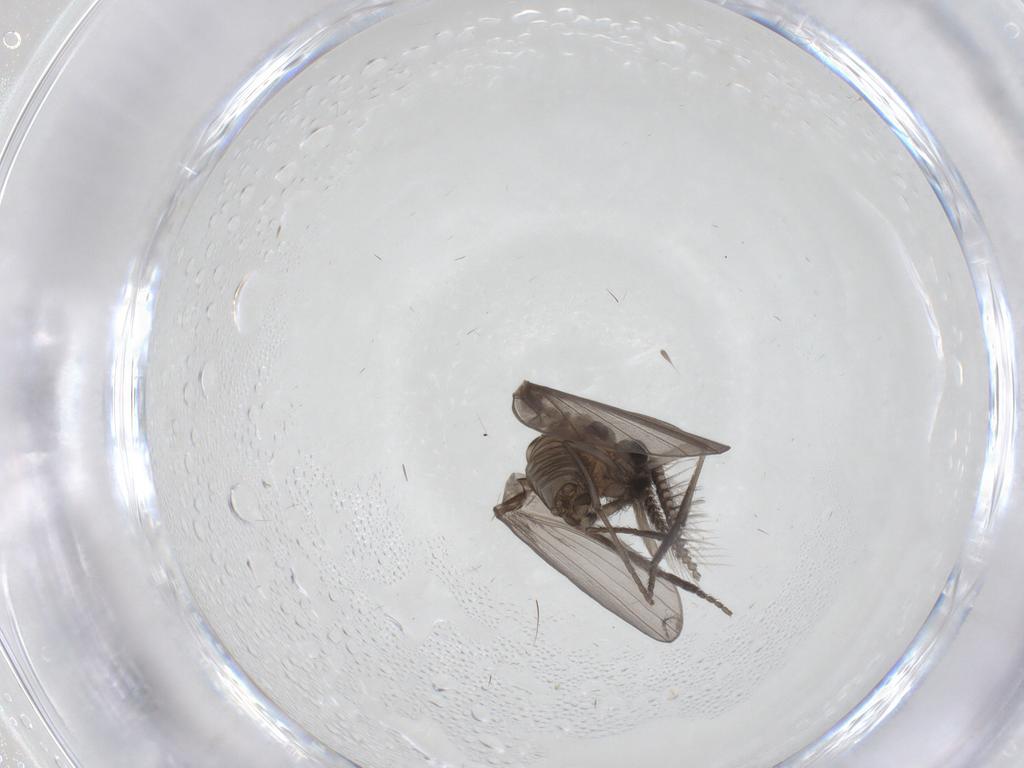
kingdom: Animalia
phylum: Arthropoda
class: Insecta
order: Diptera
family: Psychodidae
